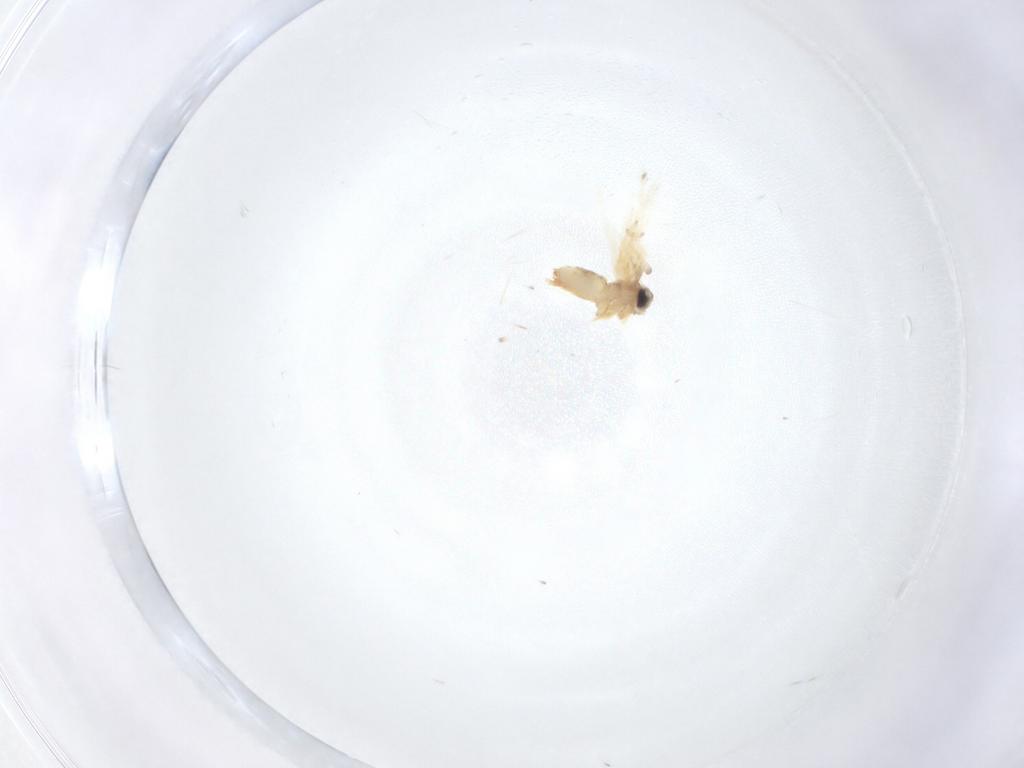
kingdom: Animalia
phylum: Arthropoda
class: Insecta
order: Lepidoptera
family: Crambidae
